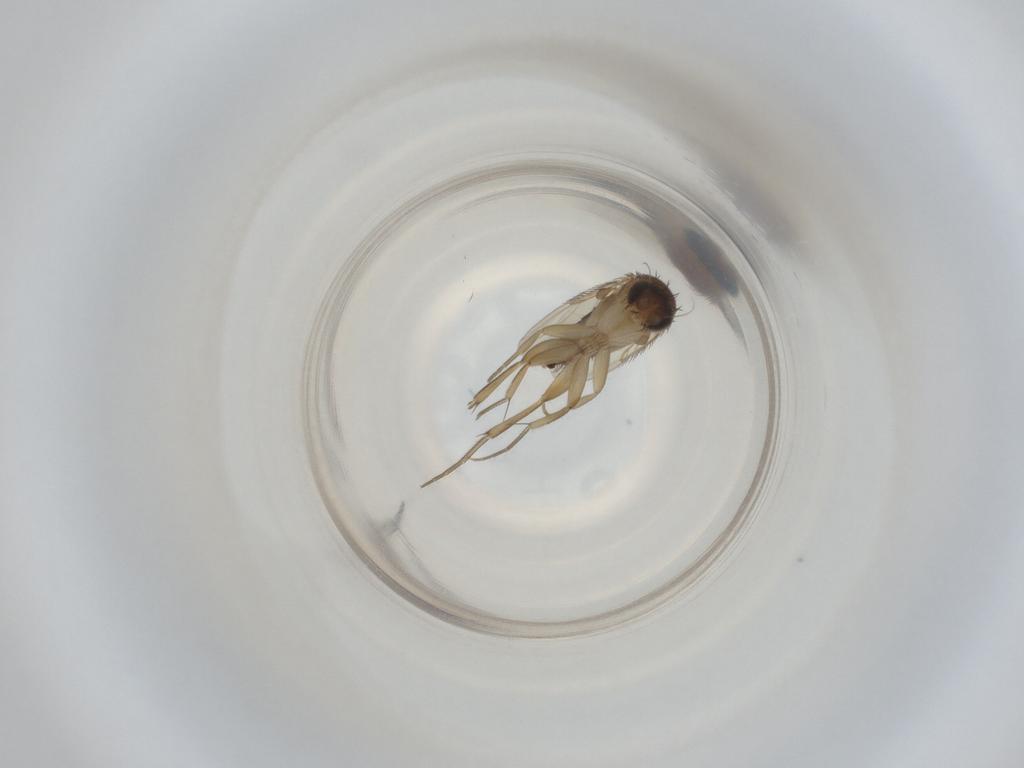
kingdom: Animalia
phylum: Arthropoda
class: Insecta
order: Diptera
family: Phoridae
